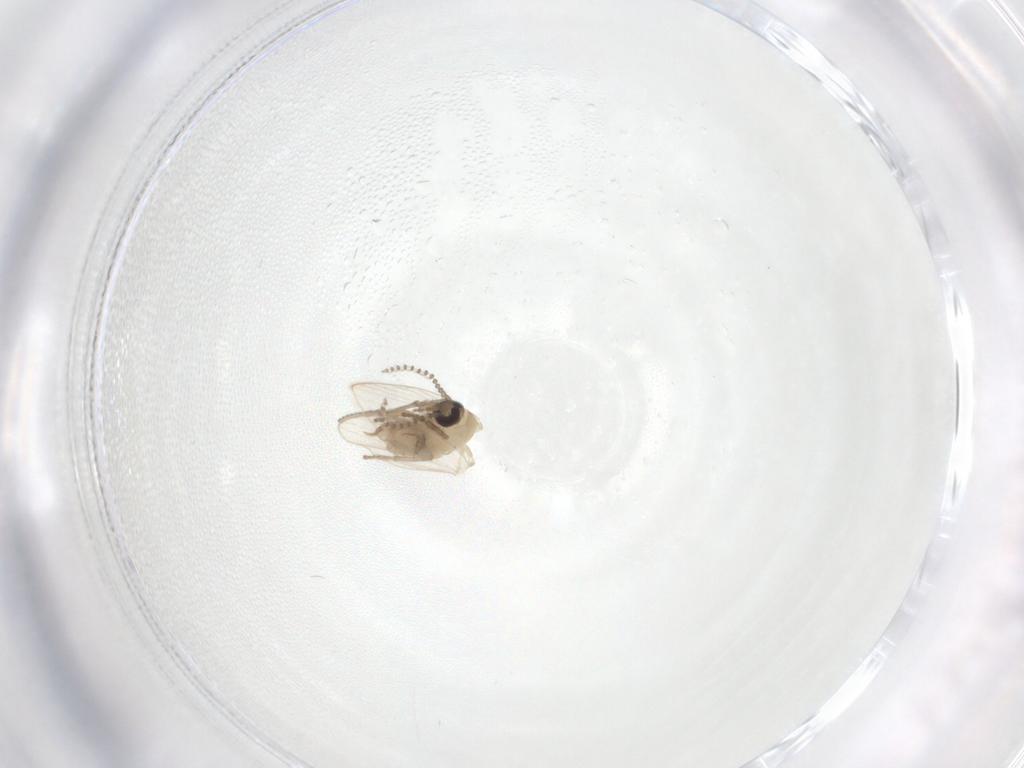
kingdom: Animalia
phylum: Arthropoda
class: Insecta
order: Diptera
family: Psychodidae
